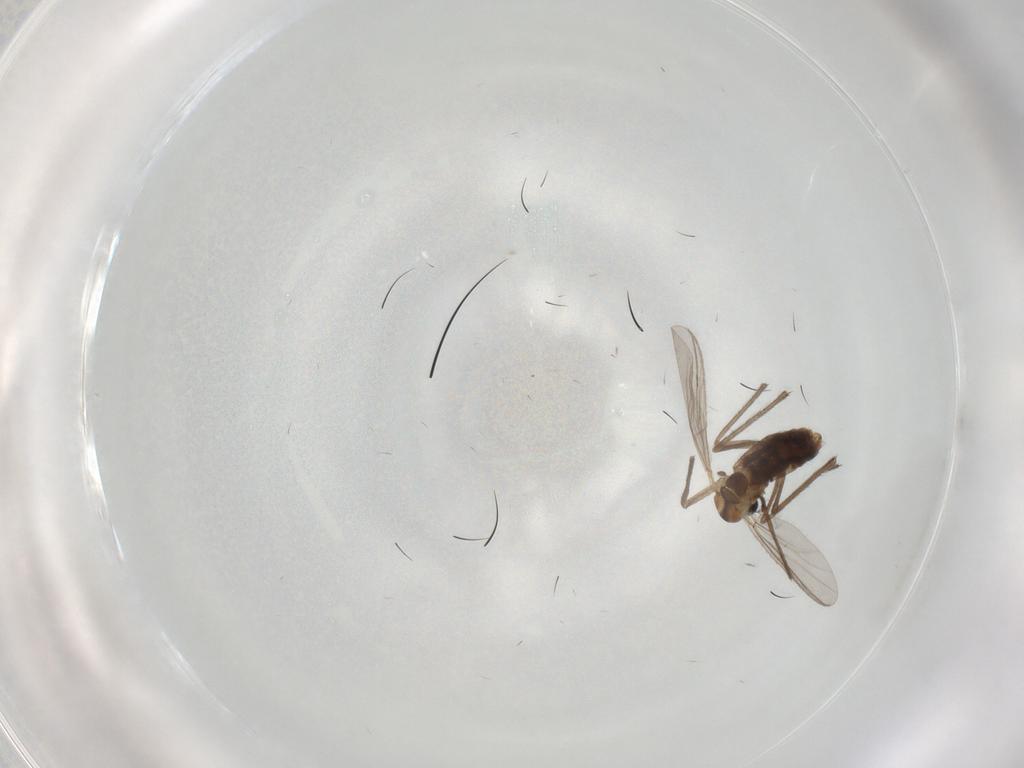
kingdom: Animalia
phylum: Arthropoda
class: Insecta
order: Diptera
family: Chironomidae
